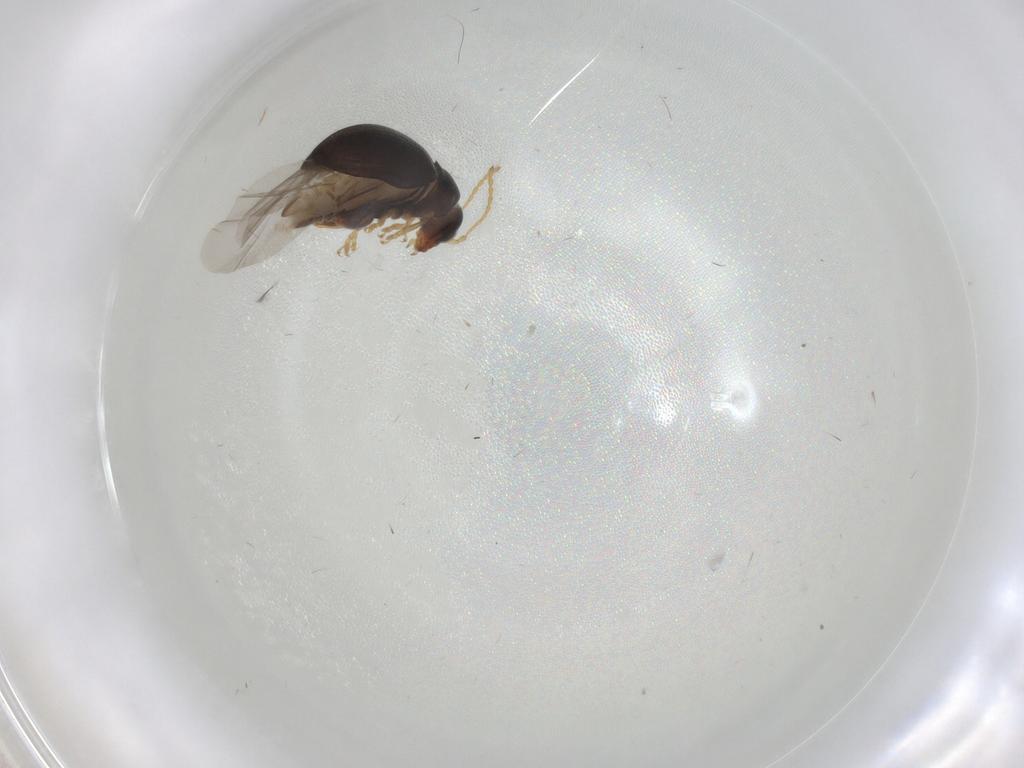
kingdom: Animalia
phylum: Arthropoda
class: Insecta
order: Coleoptera
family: Chrysomelidae
